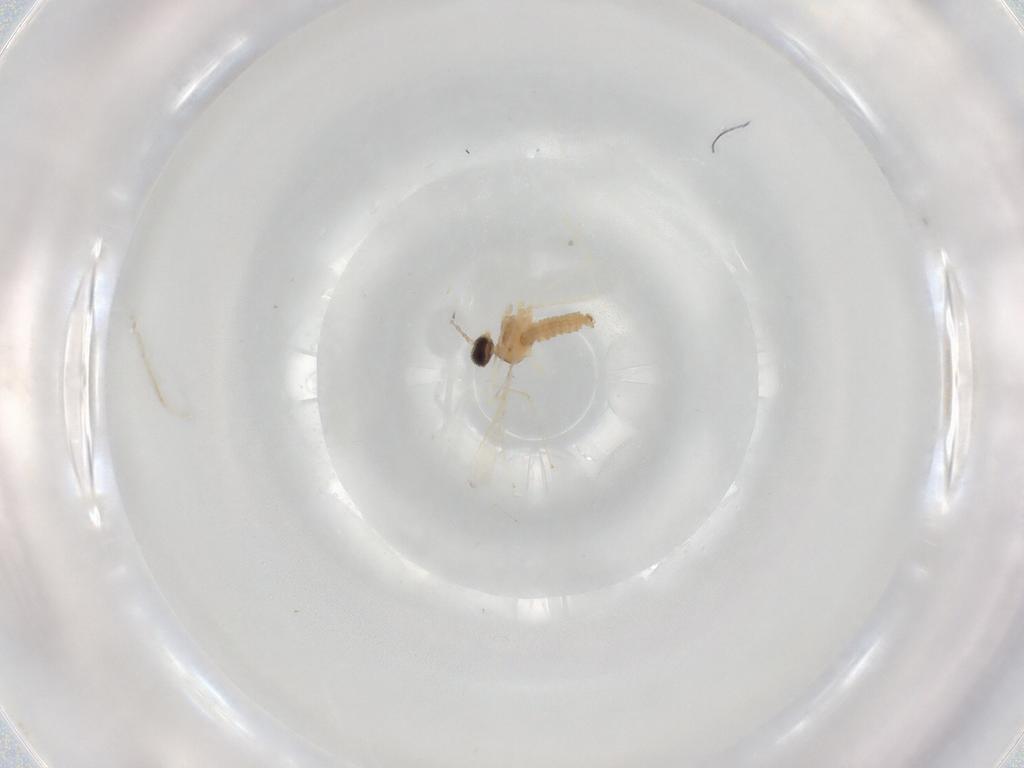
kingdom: Animalia
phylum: Arthropoda
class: Insecta
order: Diptera
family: Cecidomyiidae
